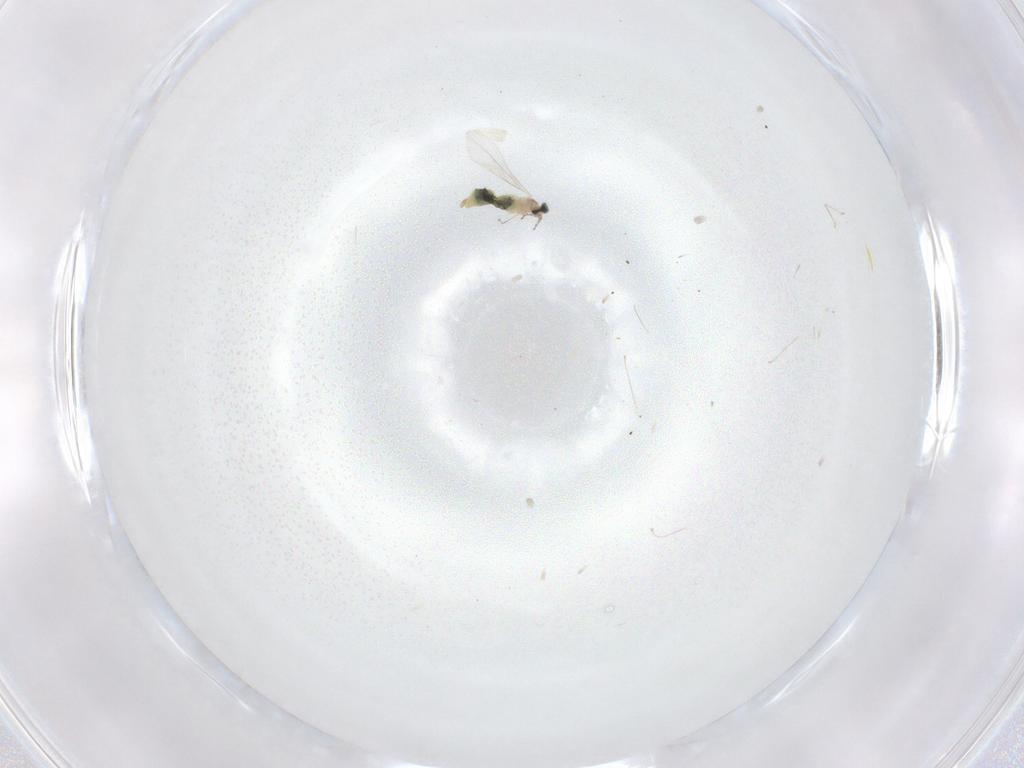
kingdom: Animalia
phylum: Arthropoda
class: Insecta
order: Diptera
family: Cecidomyiidae
